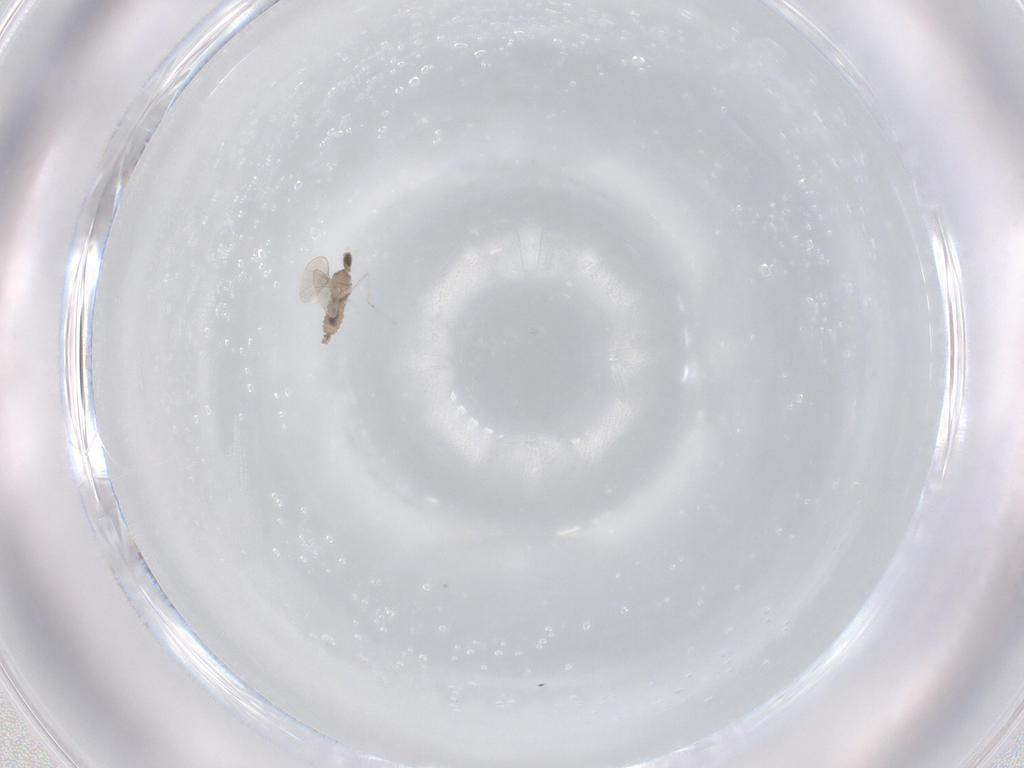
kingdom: Animalia
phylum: Arthropoda
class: Insecta
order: Diptera
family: Cecidomyiidae
